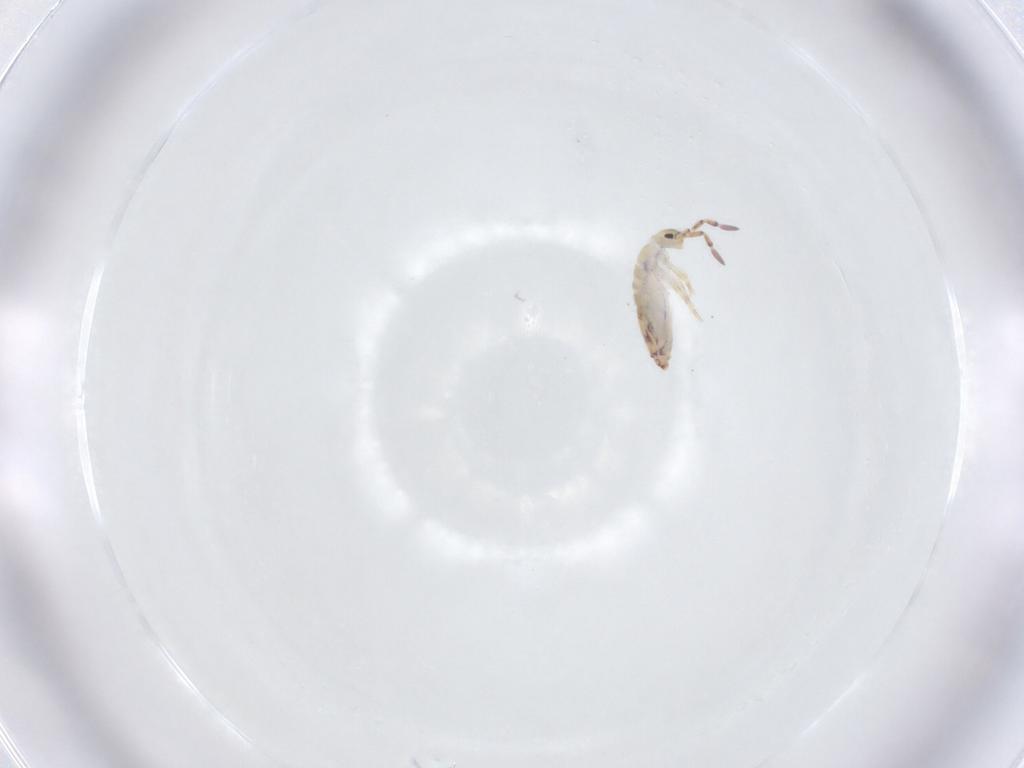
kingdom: Animalia
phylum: Arthropoda
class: Collembola
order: Entomobryomorpha
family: Entomobryidae
